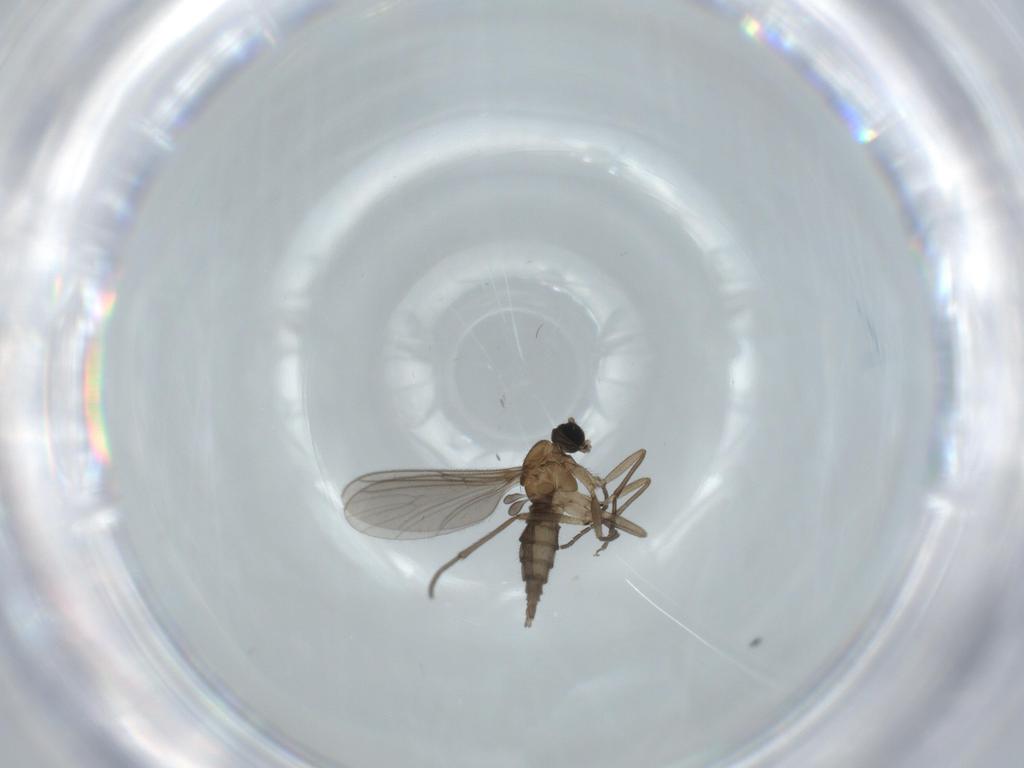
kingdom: Animalia
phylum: Arthropoda
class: Insecta
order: Diptera
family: Sciaridae
